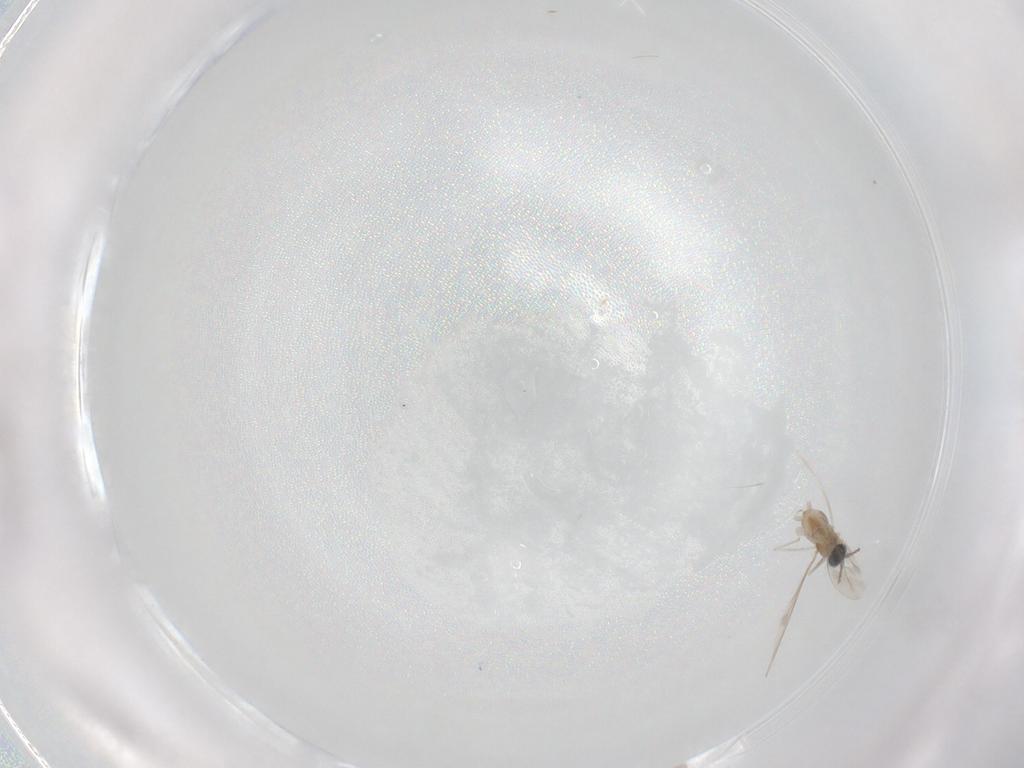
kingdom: Animalia
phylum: Arthropoda
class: Insecta
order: Diptera
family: Cecidomyiidae
